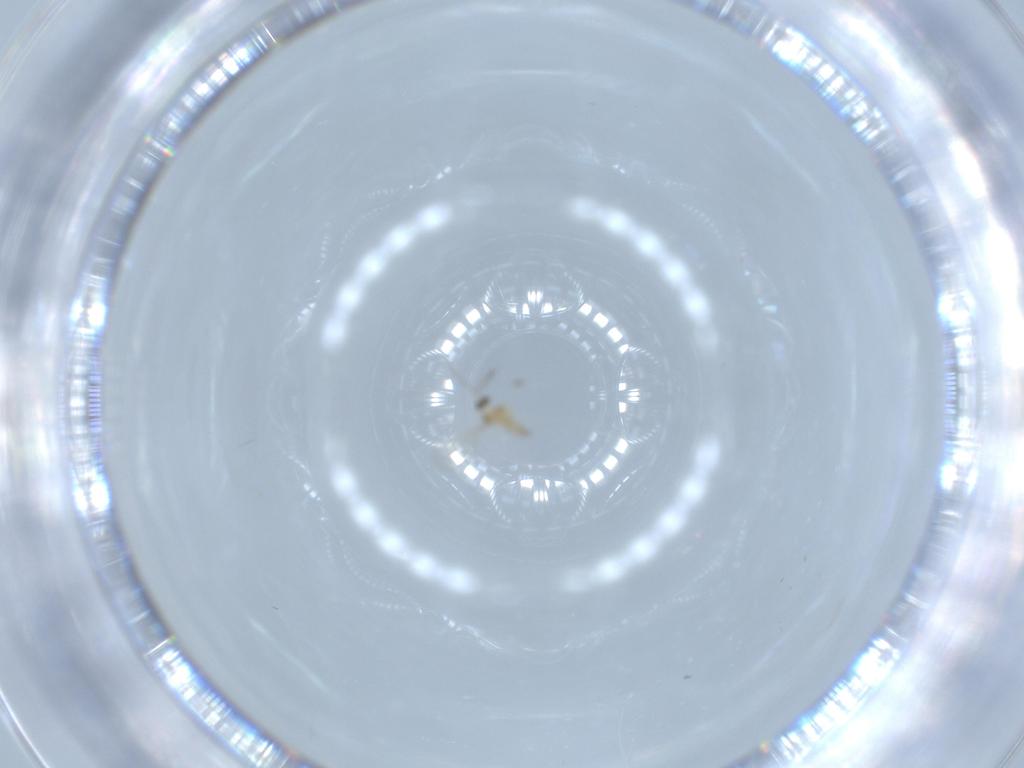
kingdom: Animalia
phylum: Arthropoda
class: Insecta
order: Diptera
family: Cecidomyiidae
